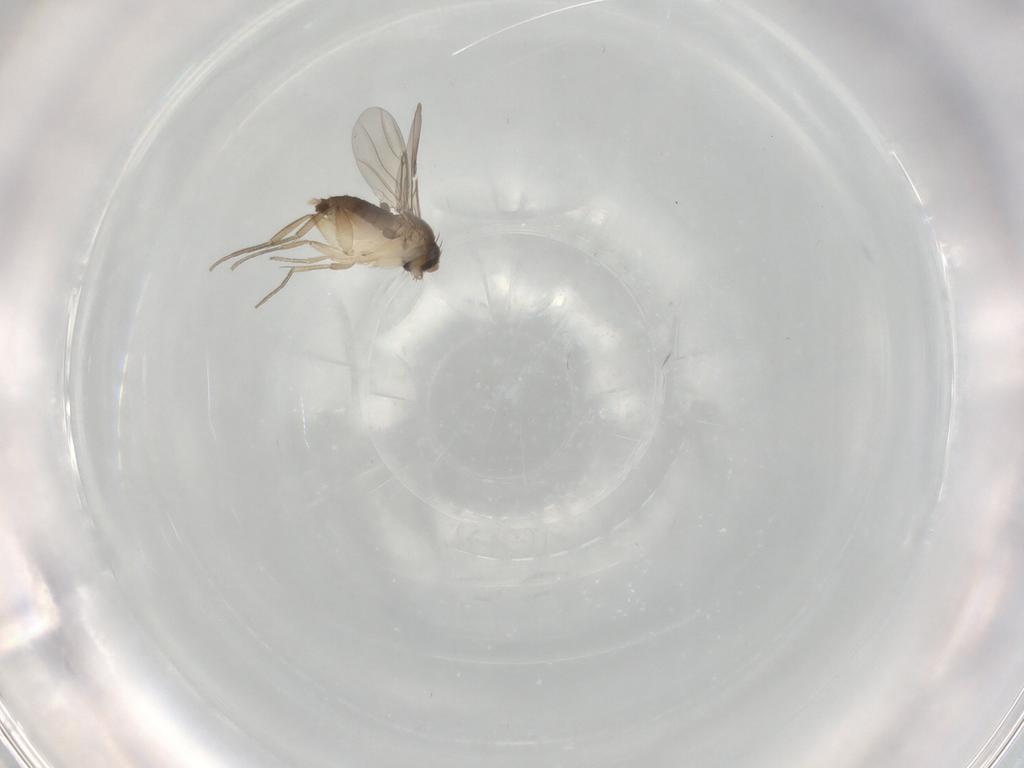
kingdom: Animalia
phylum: Arthropoda
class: Insecta
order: Diptera
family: Phoridae
